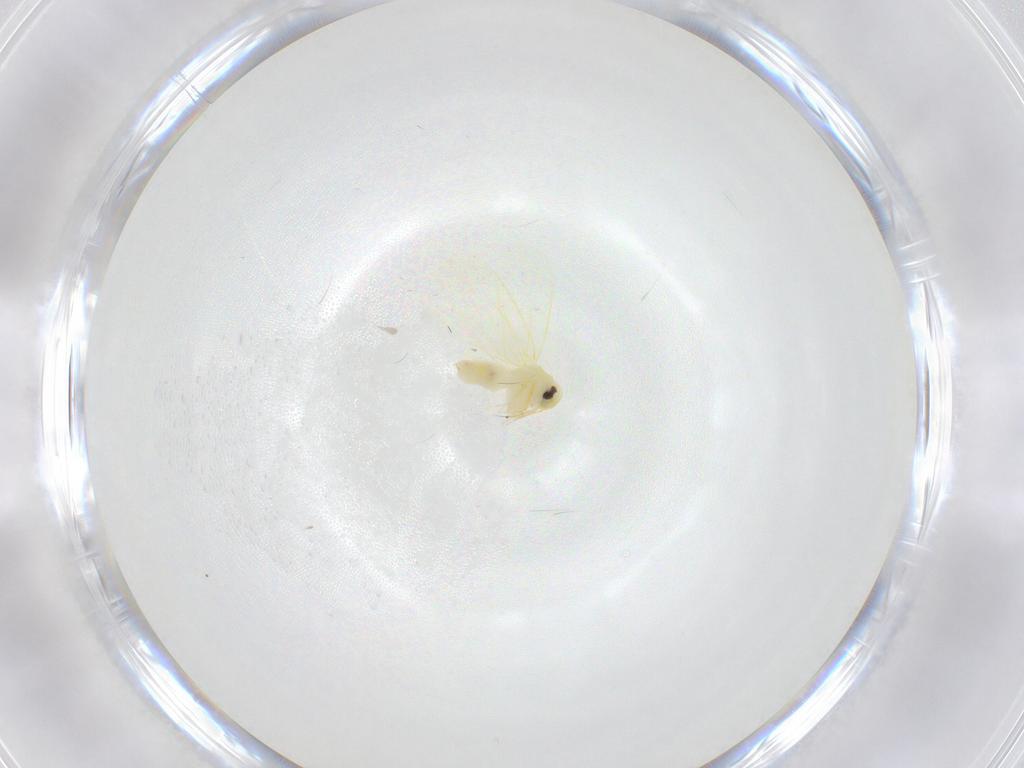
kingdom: Animalia
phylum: Arthropoda
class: Insecta
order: Hemiptera
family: Aleyrodidae
